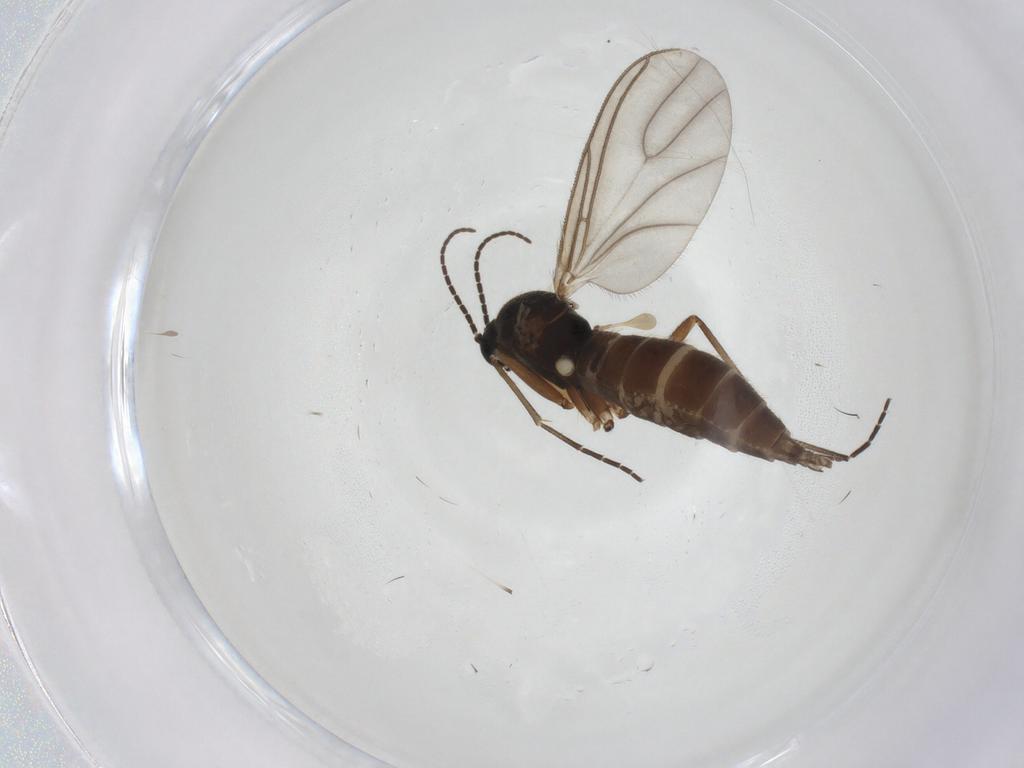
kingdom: Animalia
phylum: Arthropoda
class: Insecta
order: Diptera
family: Sciaridae
